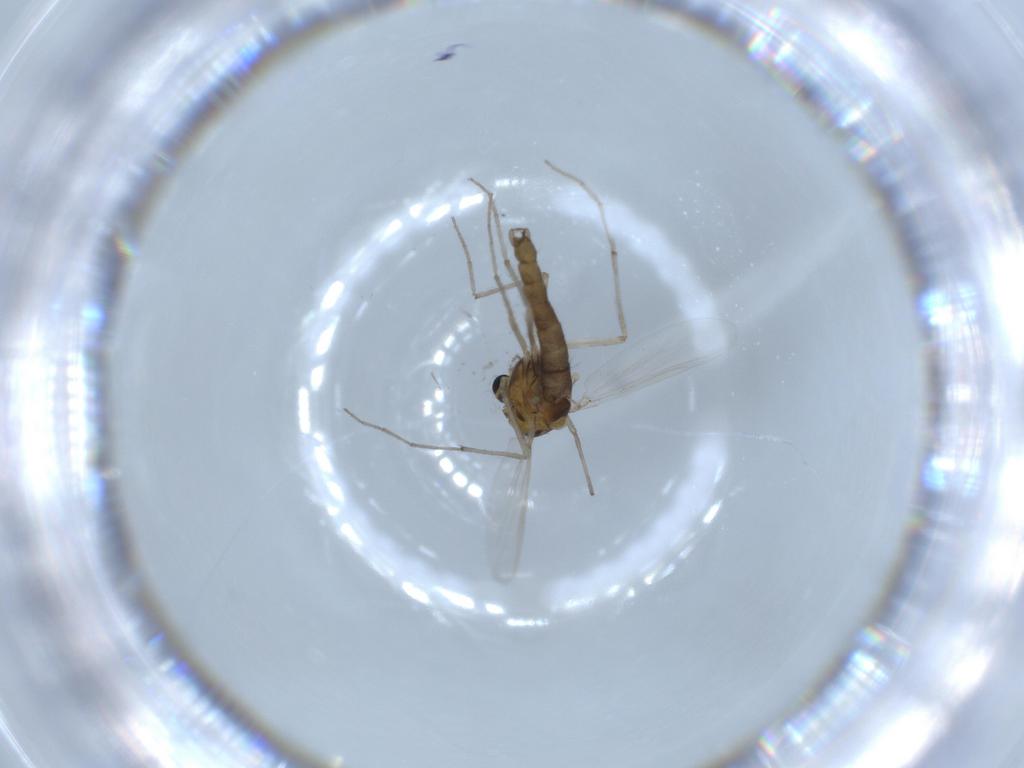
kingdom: Animalia
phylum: Arthropoda
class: Insecta
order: Diptera
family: Chironomidae
